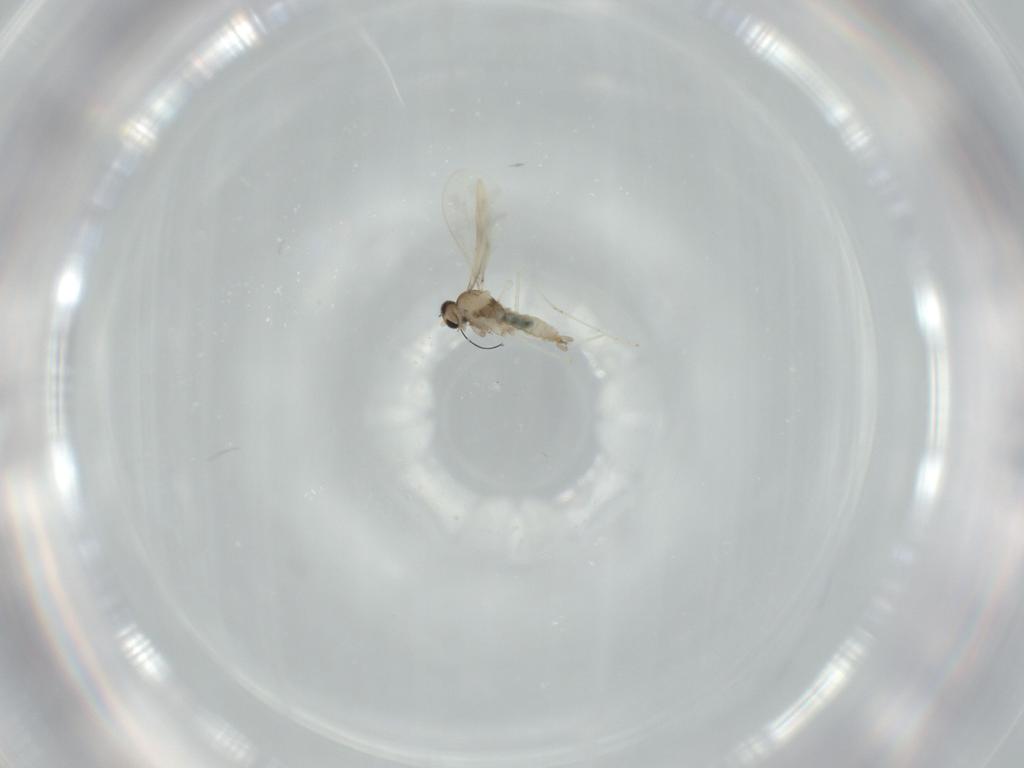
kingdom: Animalia
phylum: Arthropoda
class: Insecta
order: Diptera
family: Cecidomyiidae
